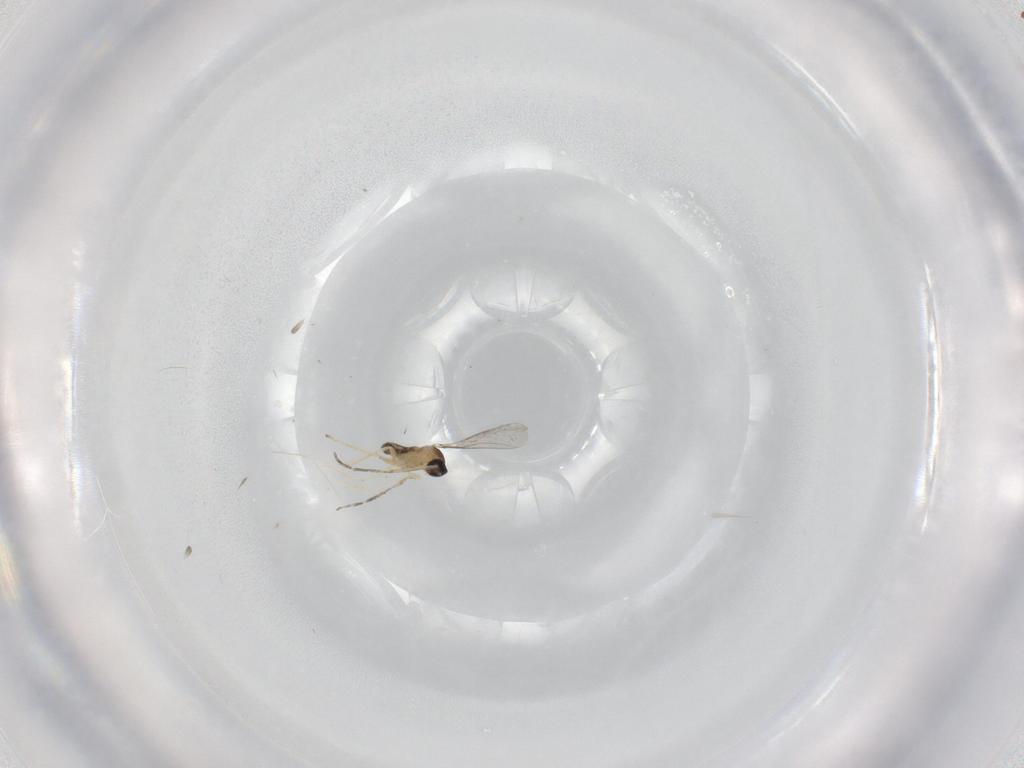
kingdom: Animalia
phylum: Arthropoda
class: Insecta
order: Diptera
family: Cecidomyiidae
